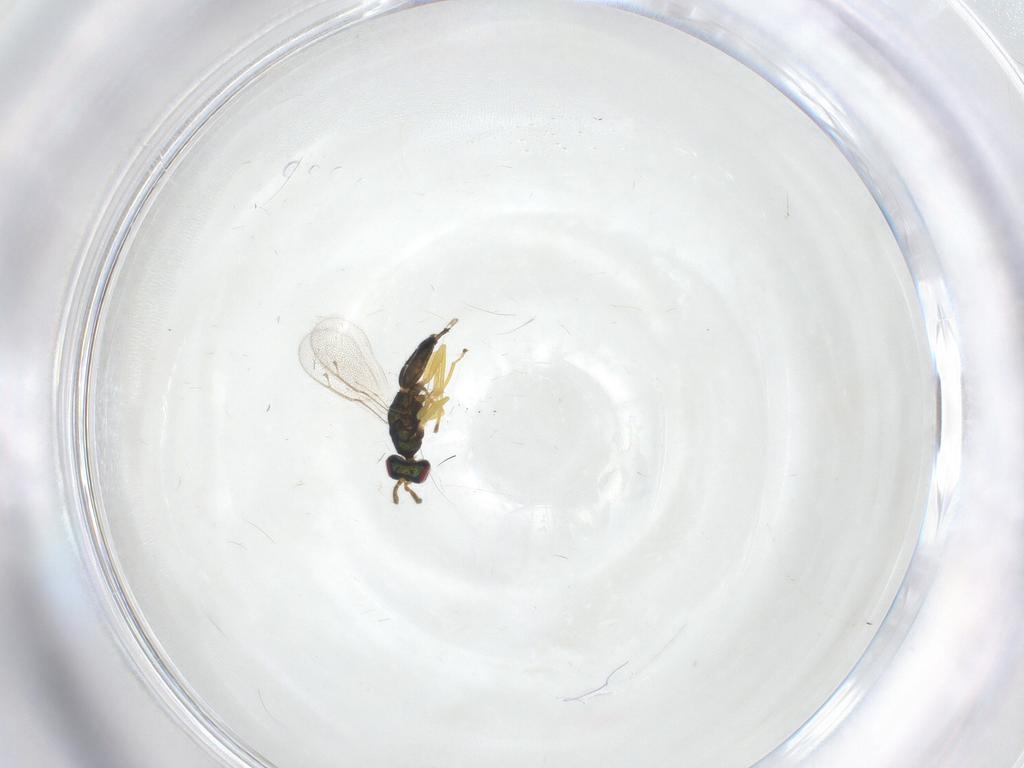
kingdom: Animalia
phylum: Arthropoda
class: Insecta
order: Hymenoptera
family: Pteromalidae
